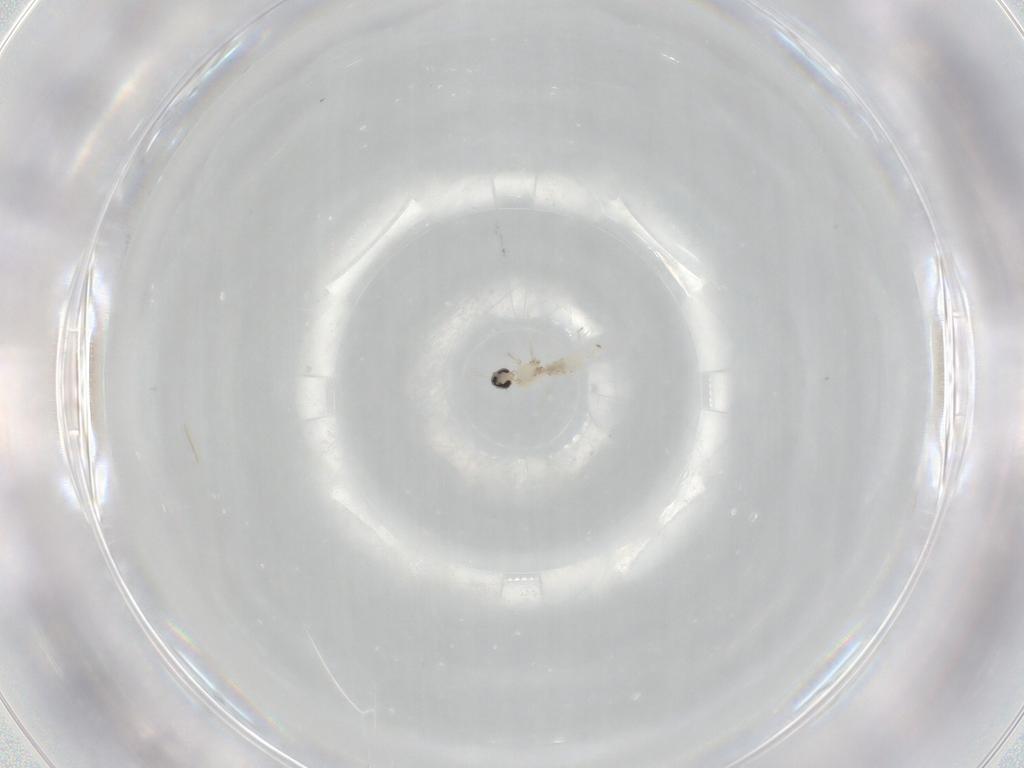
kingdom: Animalia
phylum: Arthropoda
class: Insecta
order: Diptera
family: Cecidomyiidae
